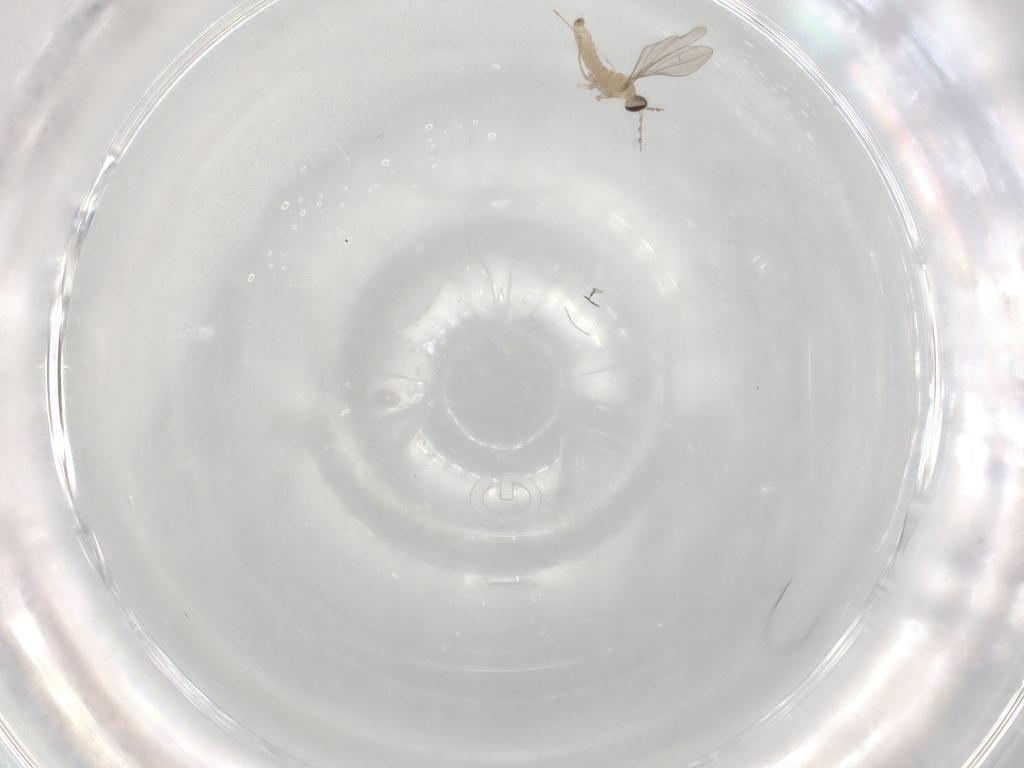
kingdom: Animalia
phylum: Arthropoda
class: Insecta
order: Diptera
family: Cecidomyiidae
